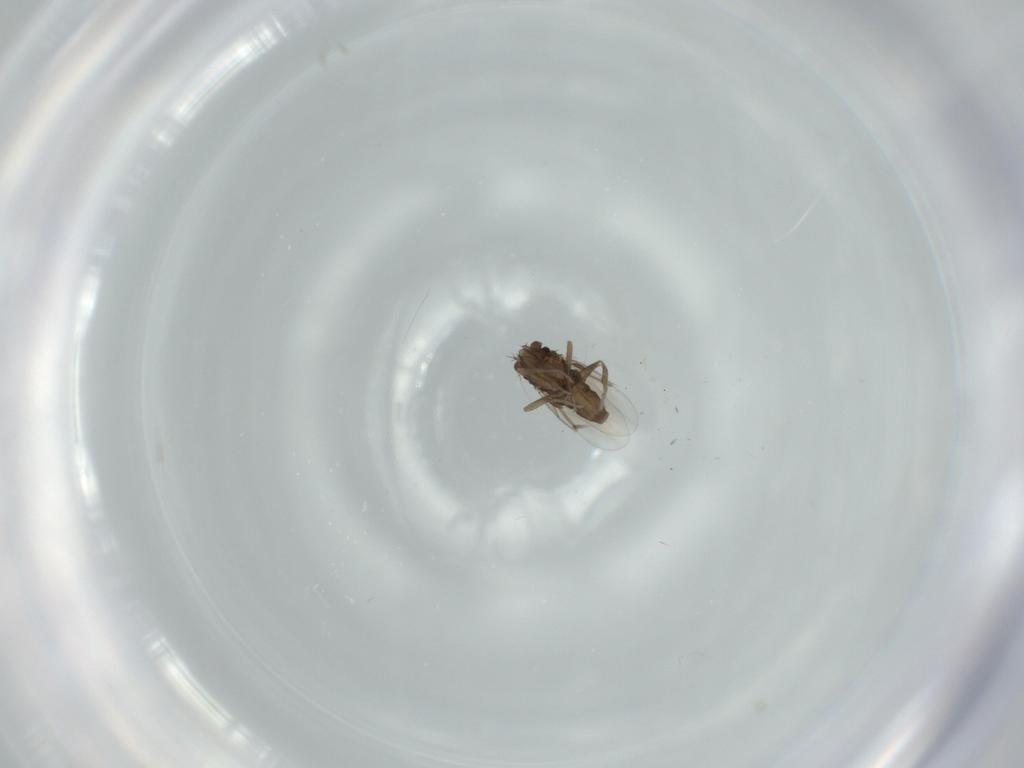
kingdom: Animalia
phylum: Arthropoda
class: Insecta
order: Diptera
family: Phoridae
